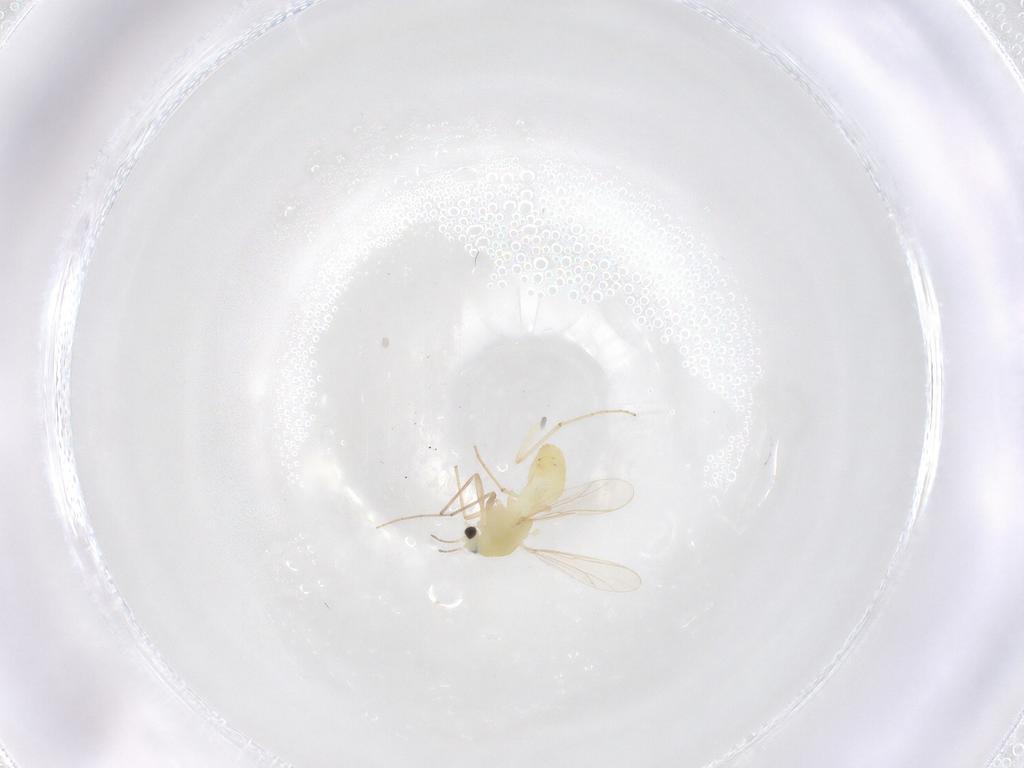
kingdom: Animalia
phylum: Arthropoda
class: Insecta
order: Diptera
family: Chironomidae
